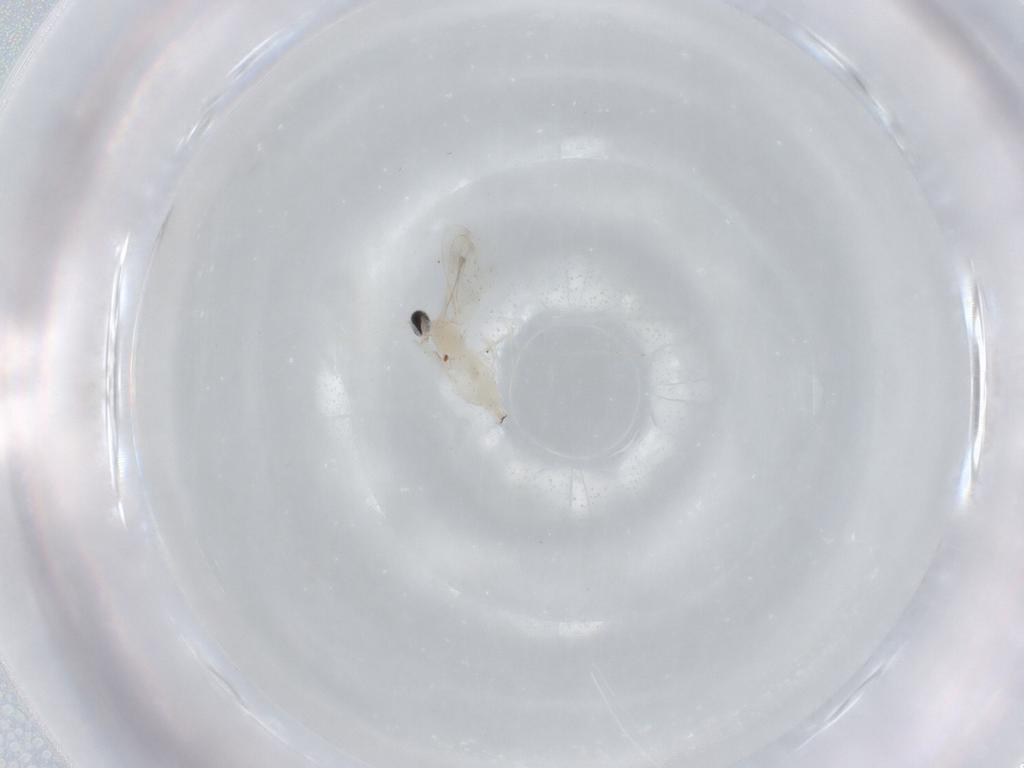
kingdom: Animalia
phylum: Arthropoda
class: Insecta
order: Diptera
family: Cecidomyiidae
